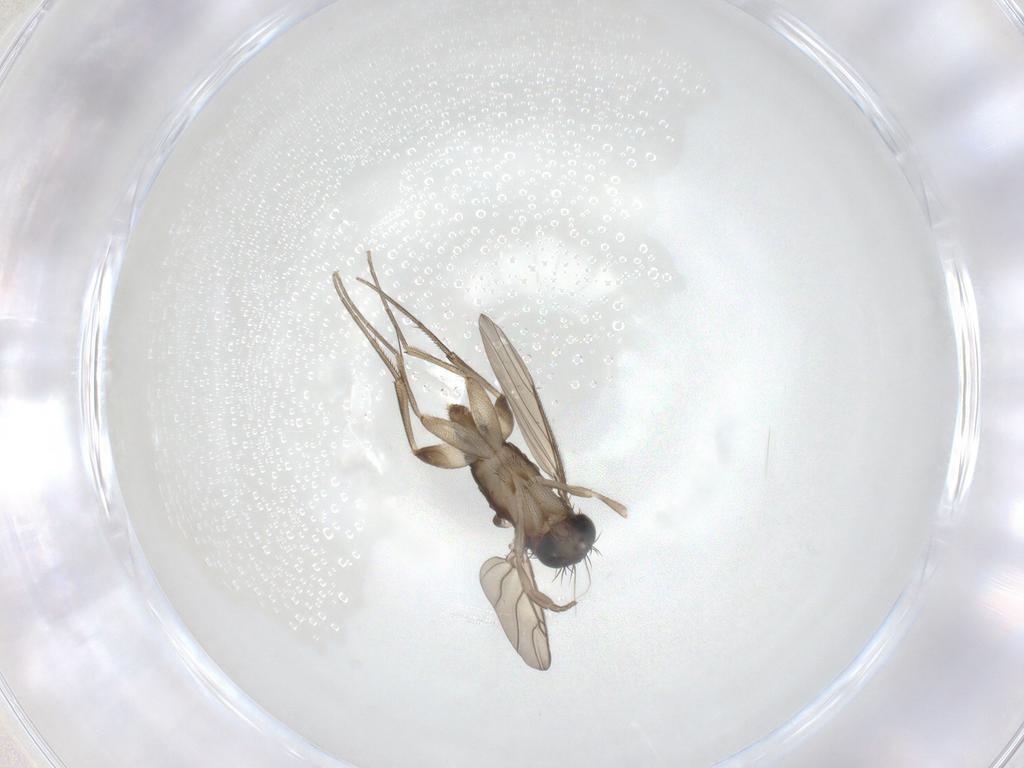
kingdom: Animalia
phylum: Arthropoda
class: Insecta
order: Diptera
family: Phoridae
